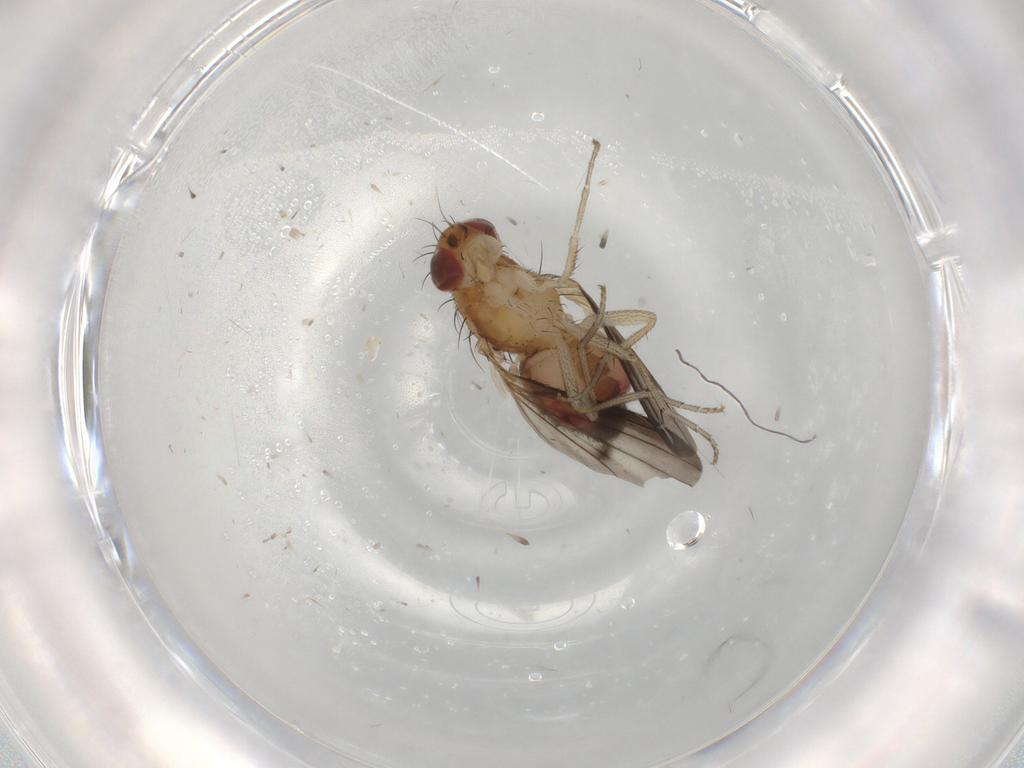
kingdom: Animalia
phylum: Arthropoda
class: Insecta
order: Diptera
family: Heleomyzidae
